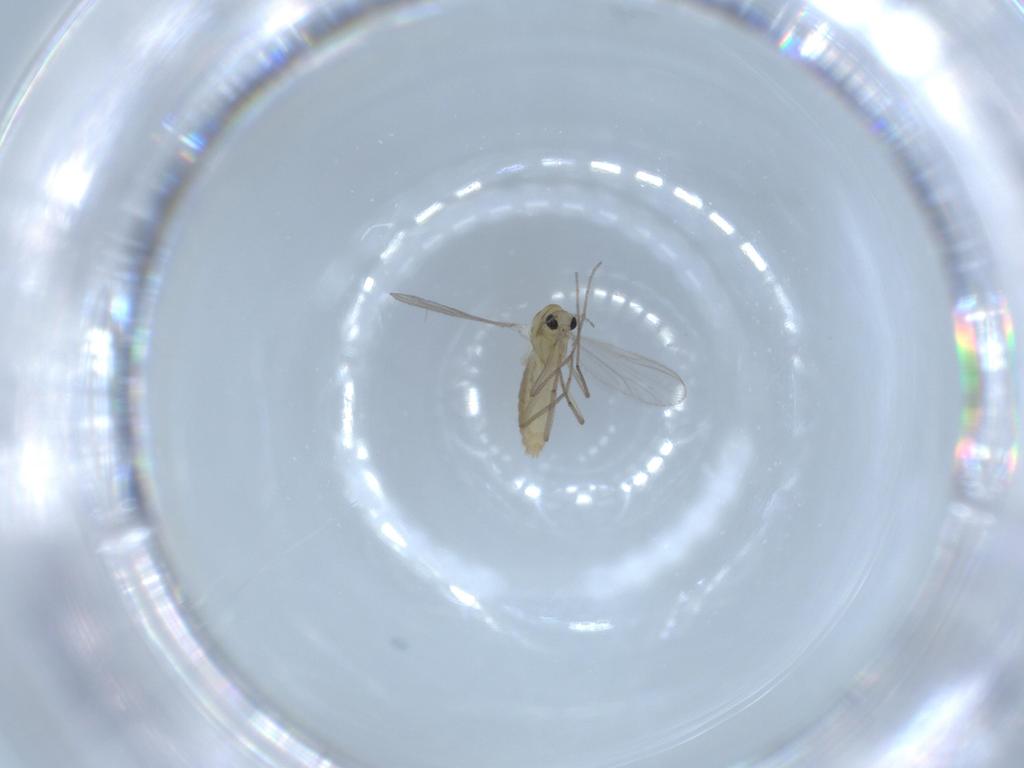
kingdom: Animalia
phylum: Arthropoda
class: Insecta
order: Diptera
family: Chironomidae
